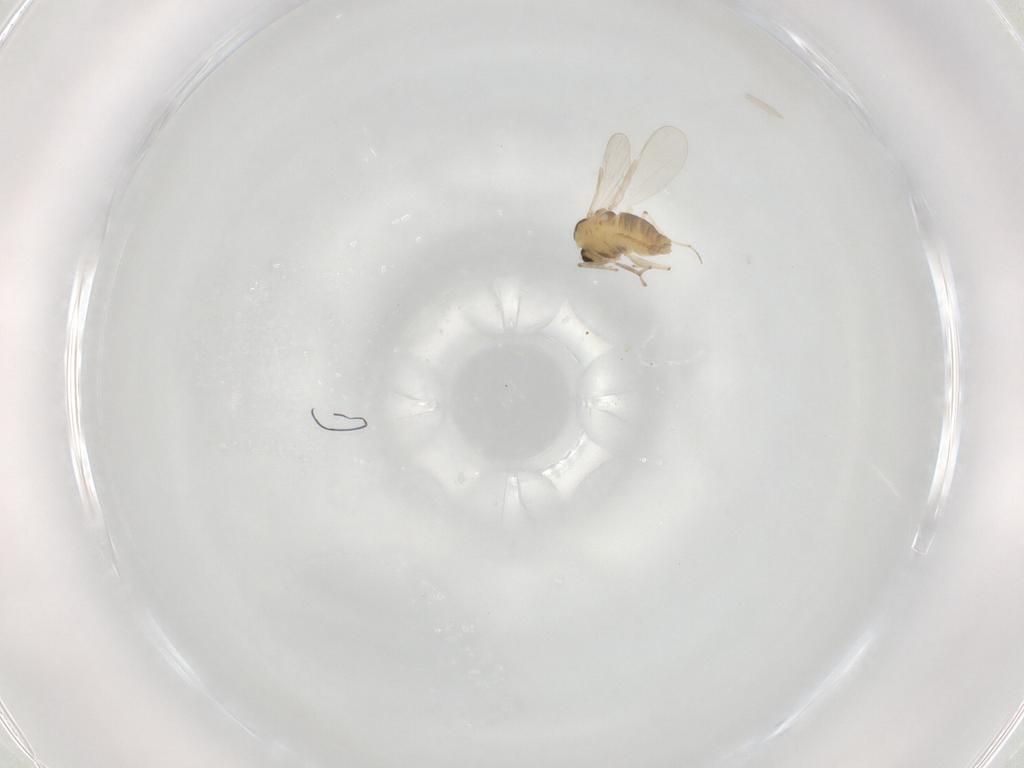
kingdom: Animalia
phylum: Arthropoda
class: Insecta
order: Diptera
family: Chironomidae
